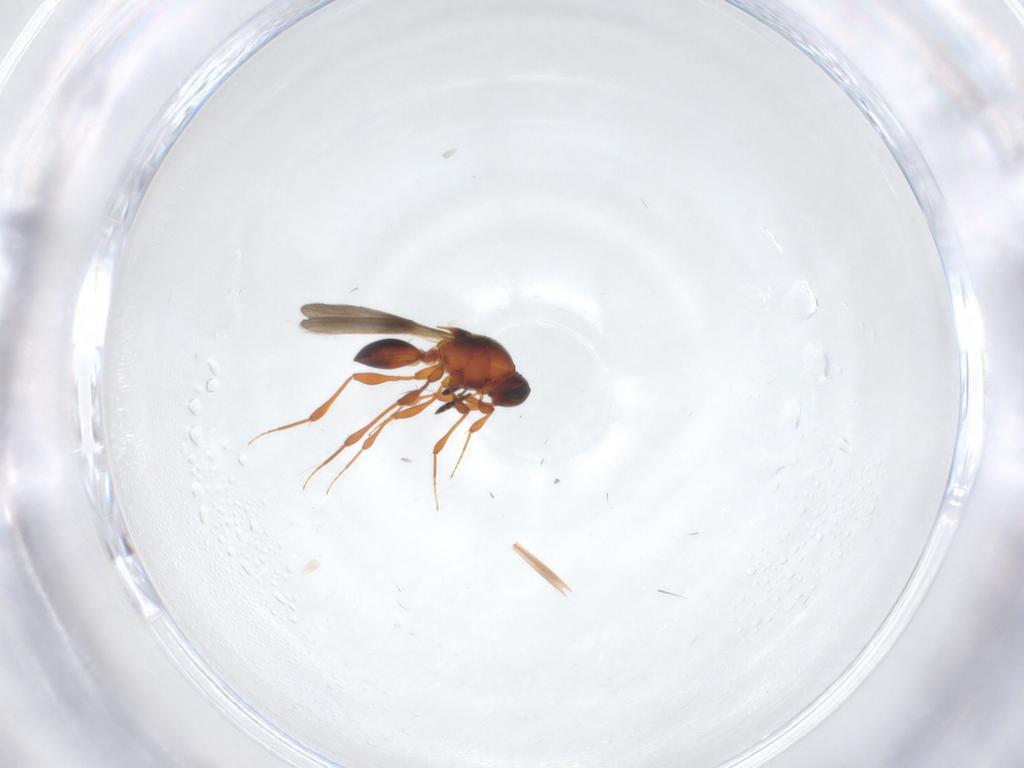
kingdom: Animalia
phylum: Arthropoda
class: Insecta
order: Hymenoptera
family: Platygastridae
